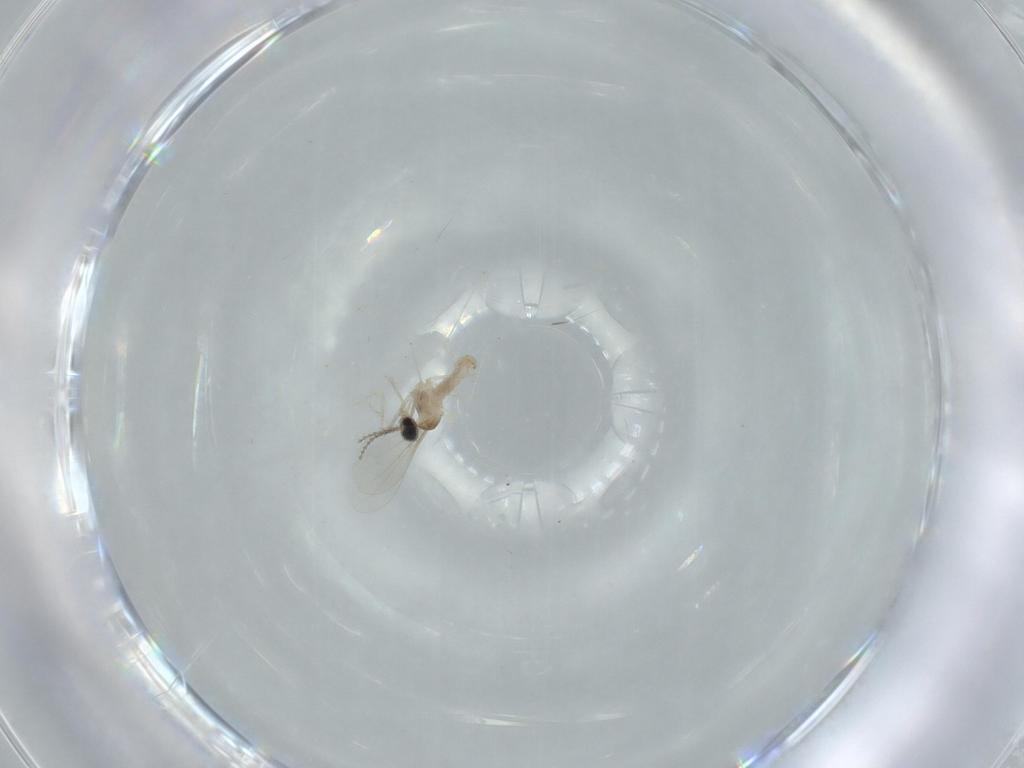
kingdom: Animalia
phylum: Arthropoda
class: Insecta
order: Diptera
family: Cecidomyiidae
